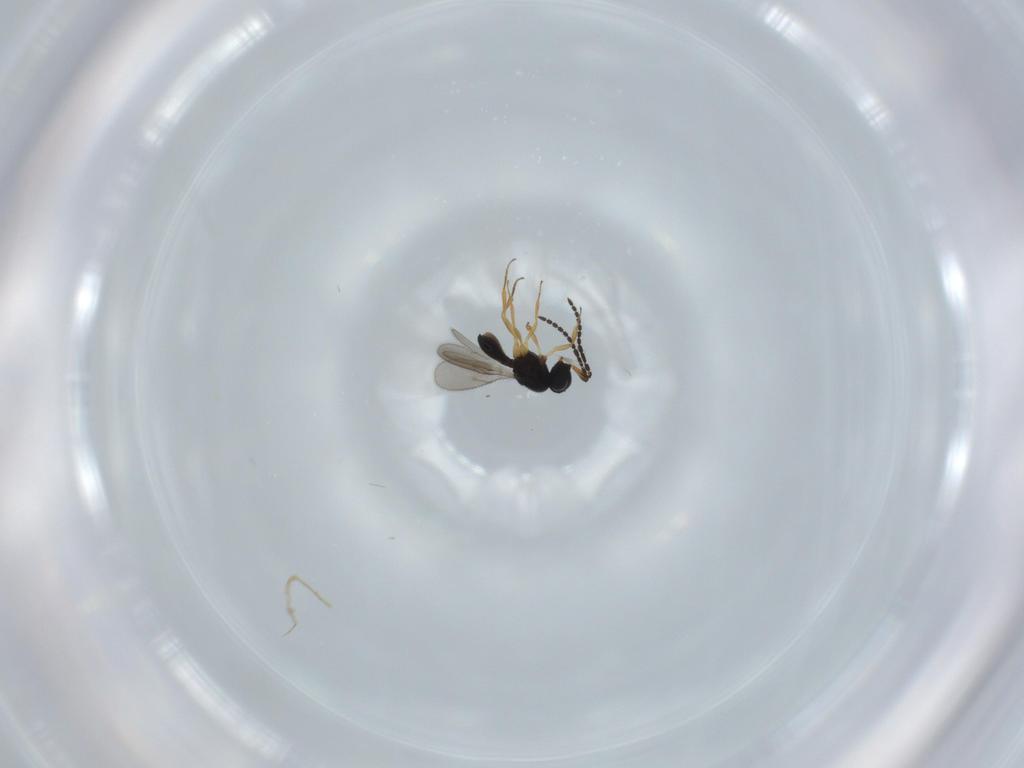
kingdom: Animalia
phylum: Arthropoda
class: Insecta
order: Hymenoptera
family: Scelionidae
